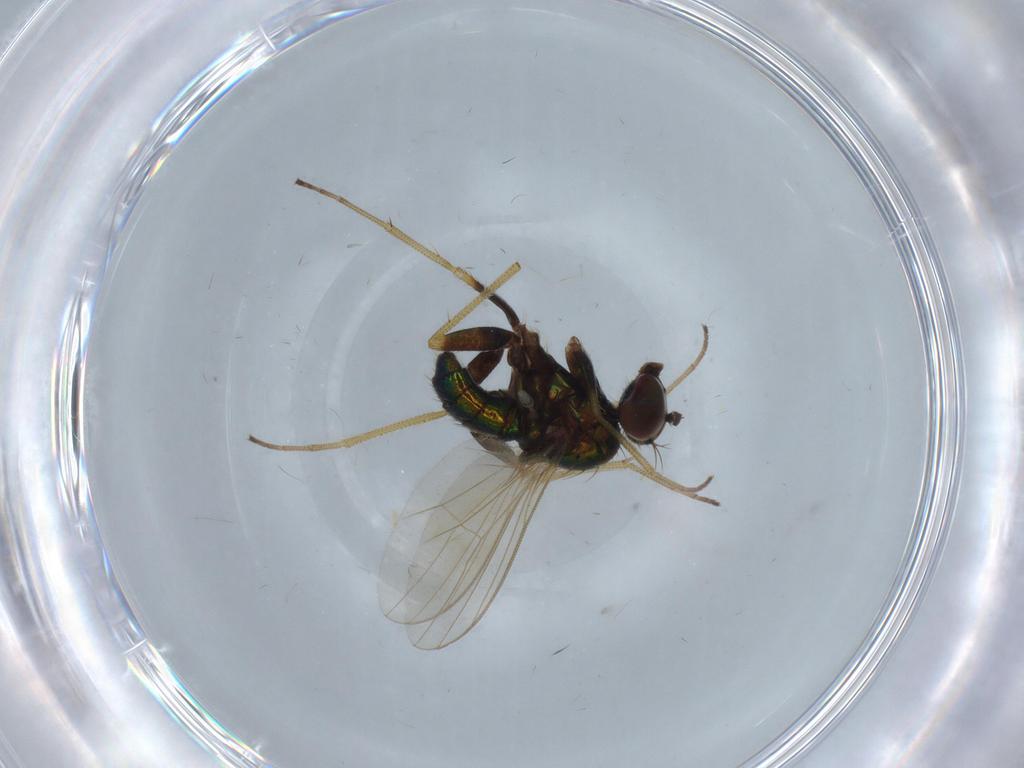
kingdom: Animalia
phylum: Arthropoda
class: Insecta
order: Diptera
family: Dolichopodidae
